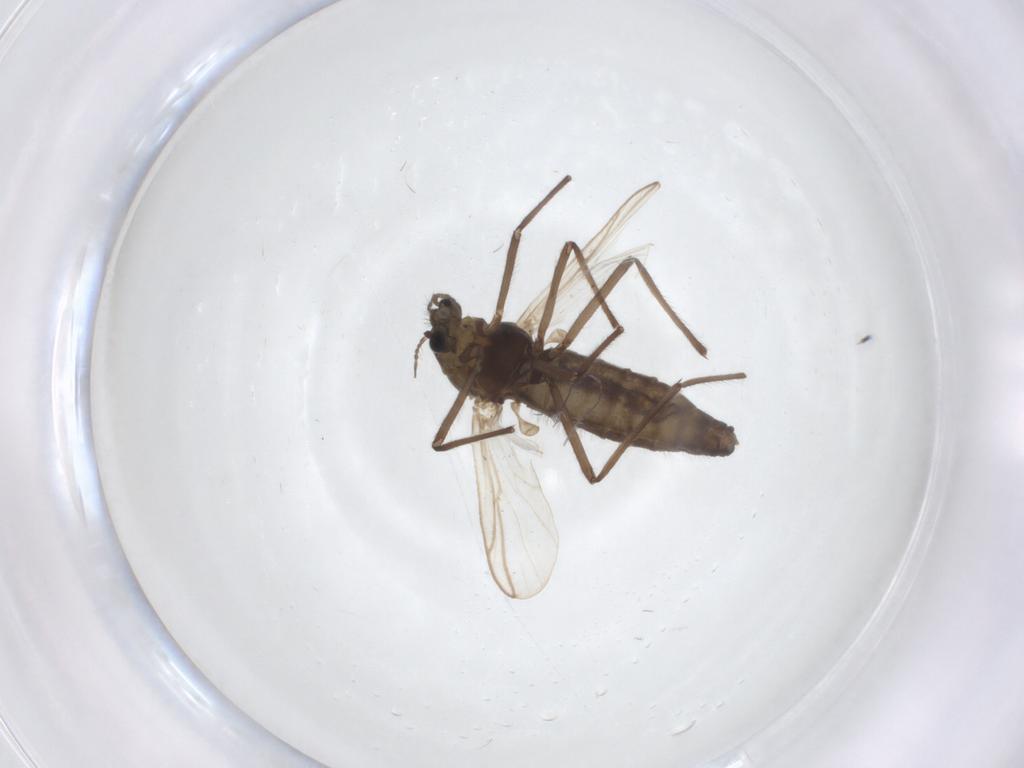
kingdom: Animalia
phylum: Arthropoda
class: Insecta
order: Diptera
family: Chironomidae
